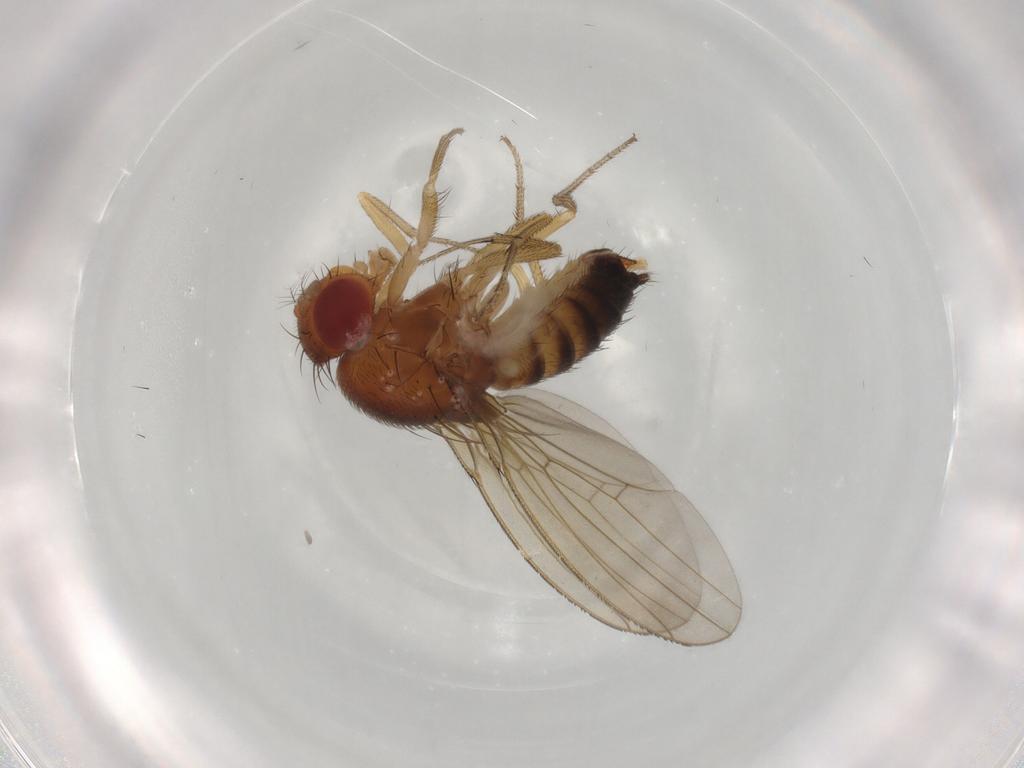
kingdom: Animalia
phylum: Arthropoda
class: Insecta
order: Diptera
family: Drosophilidae
